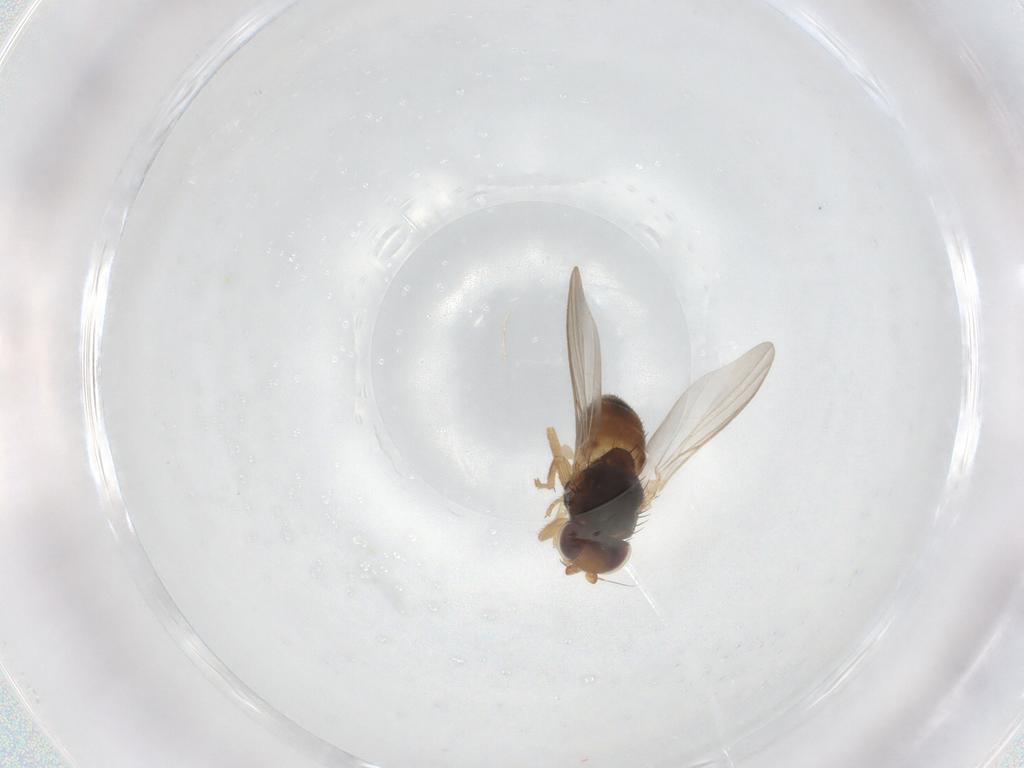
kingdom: Animalia
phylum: Arthropoda
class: Insecta
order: Diptera
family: Chloropidae
